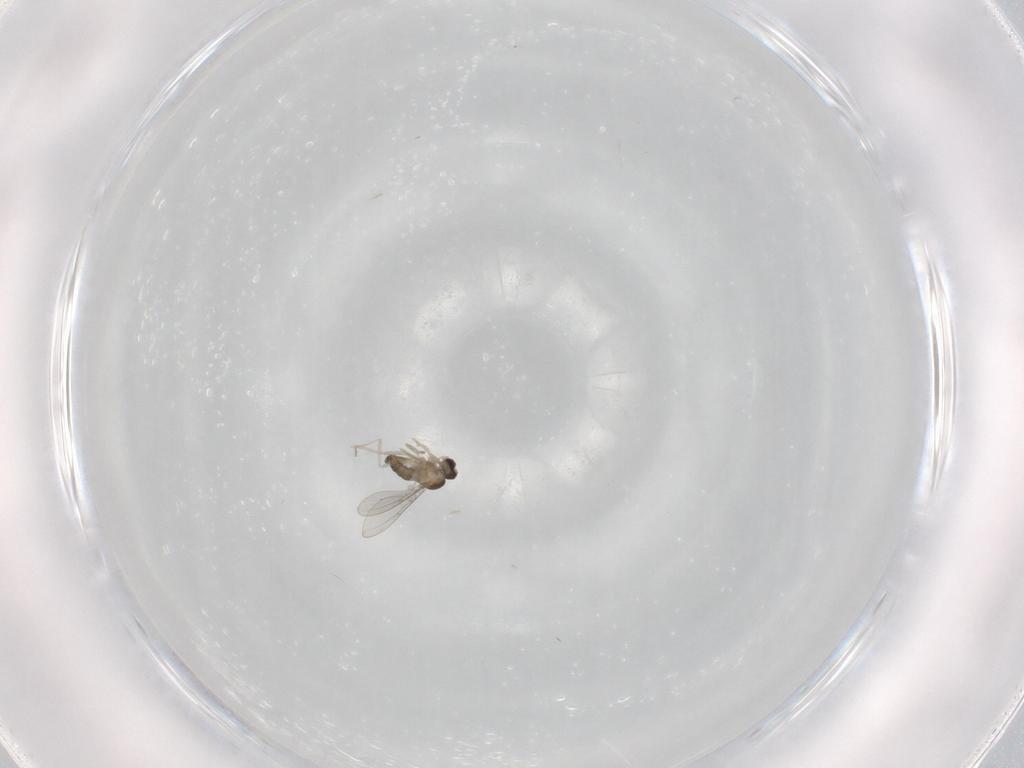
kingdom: Animalia
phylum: Arthropoda
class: Insecta
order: Diptera
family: Cecidomyiidae
